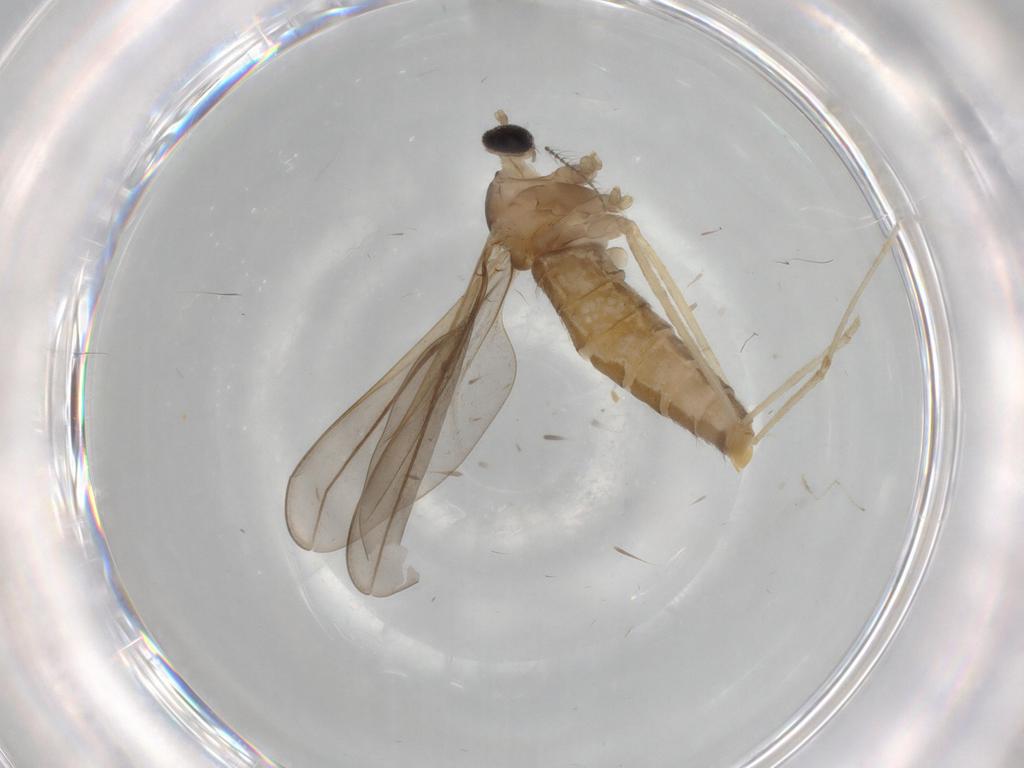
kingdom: Animalia
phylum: Arthropoda
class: Insecta
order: Diptera
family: Cecidomyiidae
